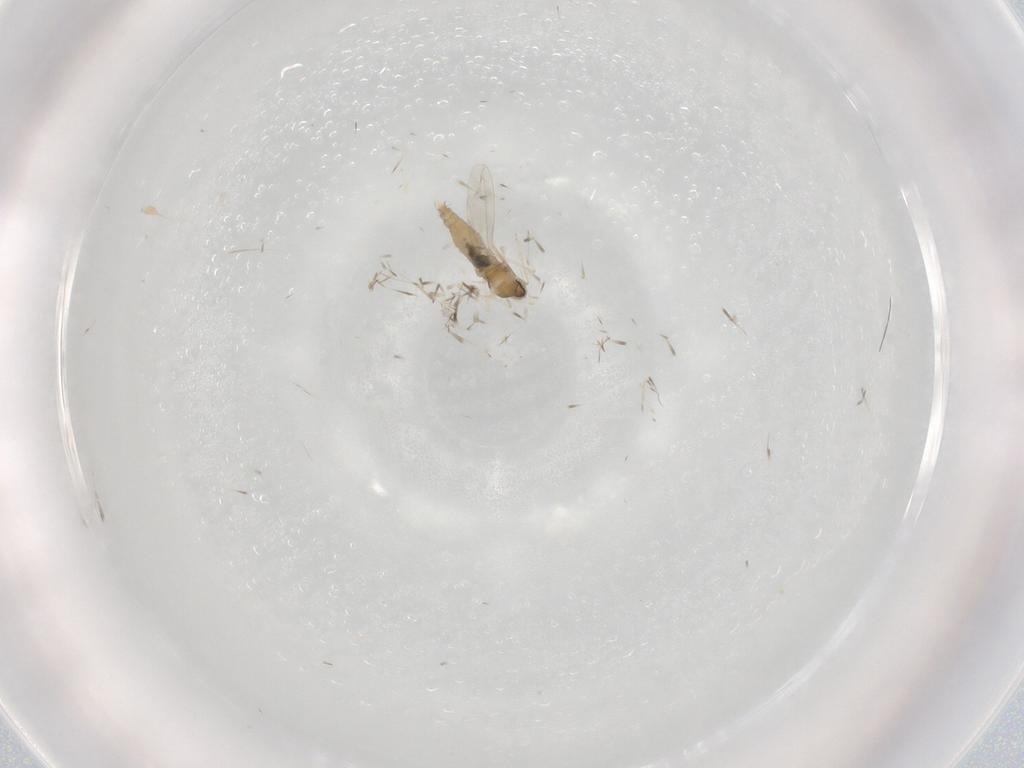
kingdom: Animalia
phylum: Arthropoda
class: Insecta
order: Diptera
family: Cecidomyiidae
